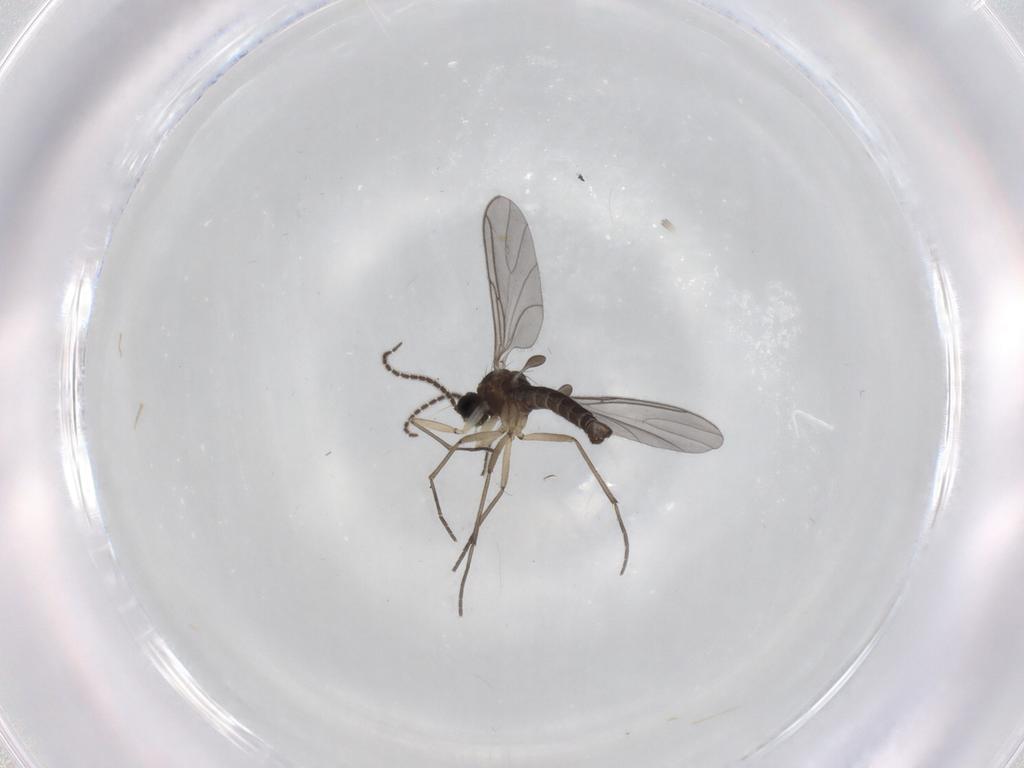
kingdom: Animalia
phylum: Arthropoda
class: Insecta
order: Diptera
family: Sciaridae
